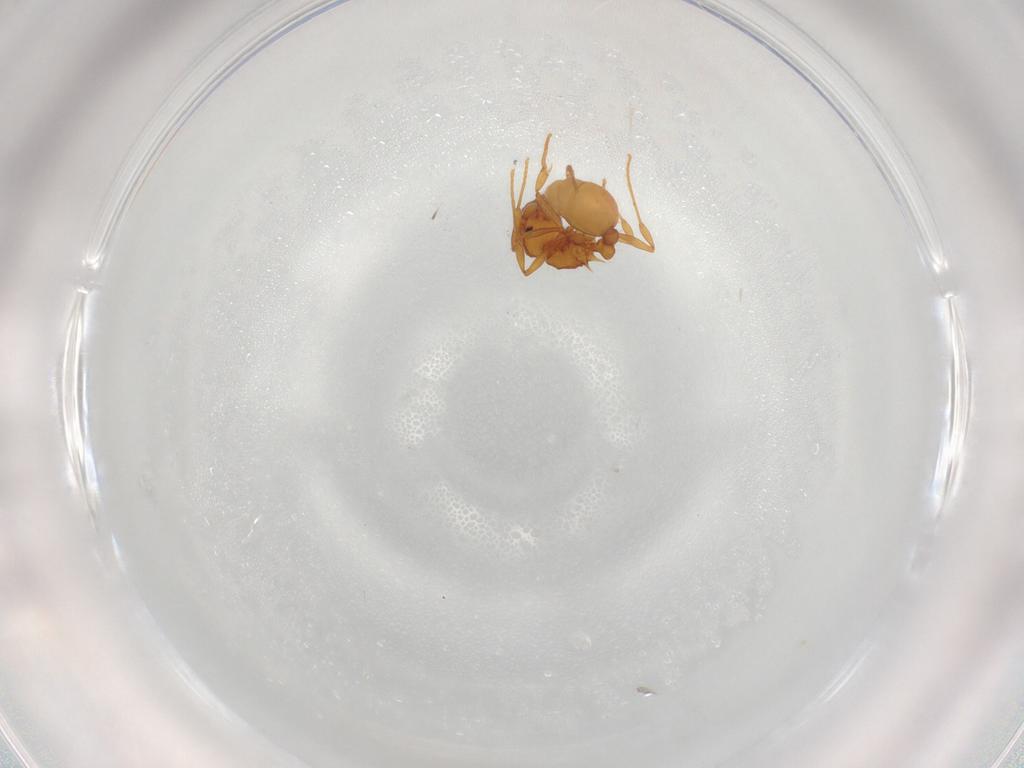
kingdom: Animalia
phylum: Arthropoda
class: Insecta
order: Hymenoptera
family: Formicidae
